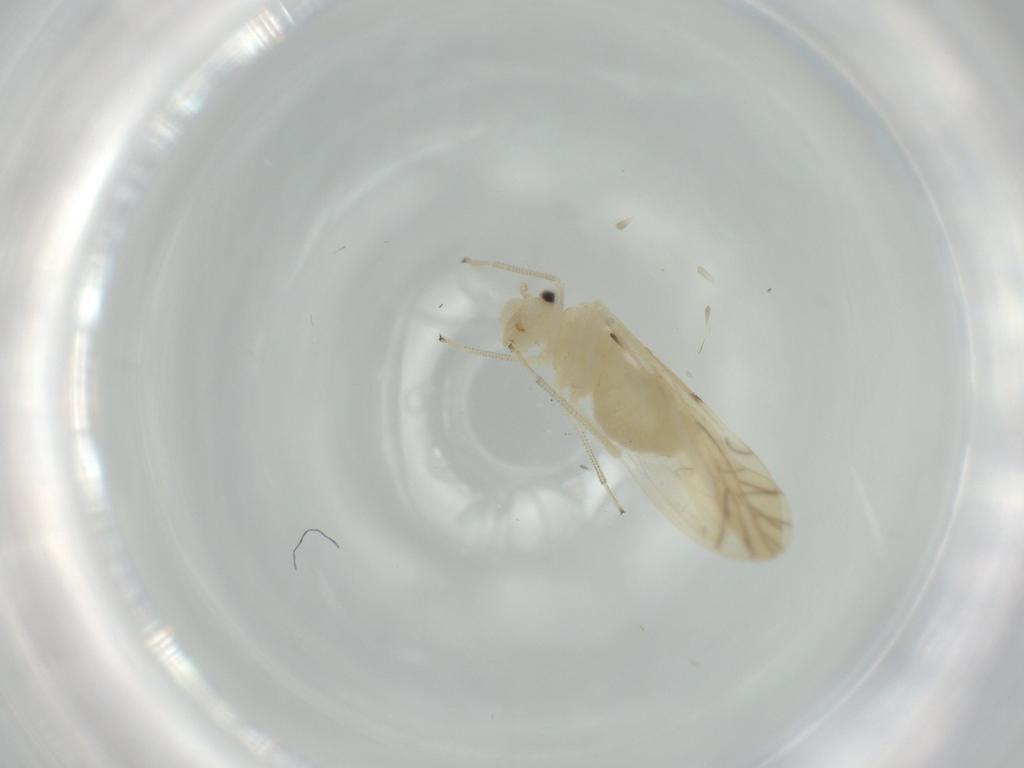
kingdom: Animalia
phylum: Arthropoda
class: Insecta
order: Psocodea
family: Caeciliusidae
